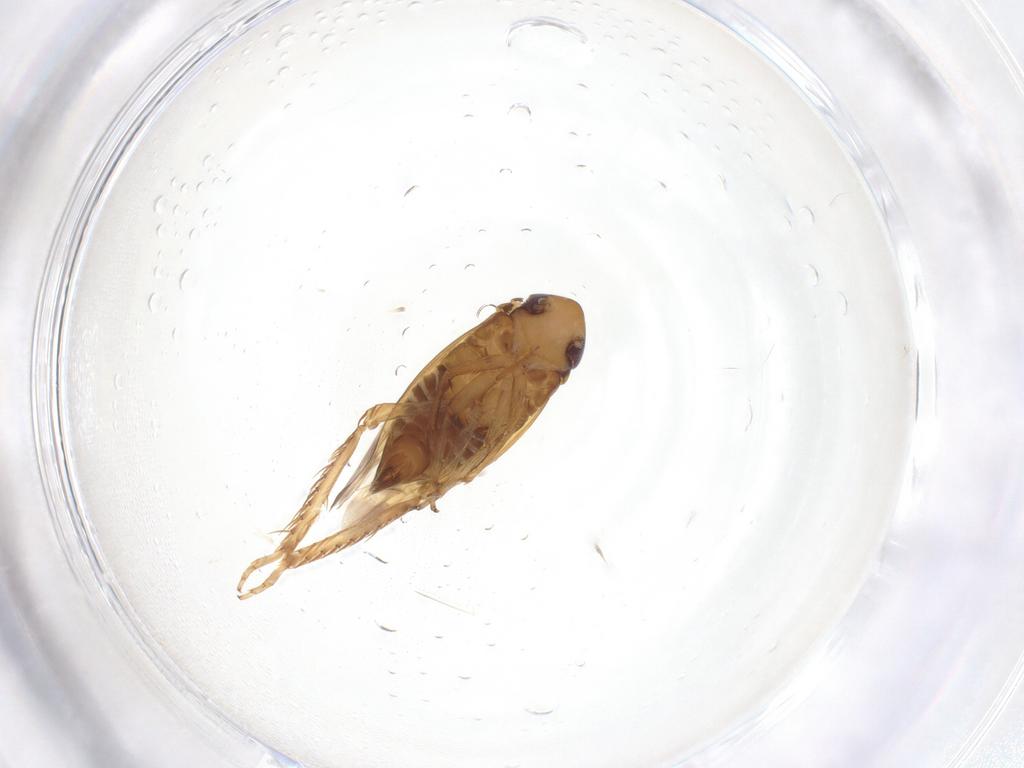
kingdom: Animalia
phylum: Arthropoda
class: Insecta
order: Hemiptera
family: Cicadellidae
